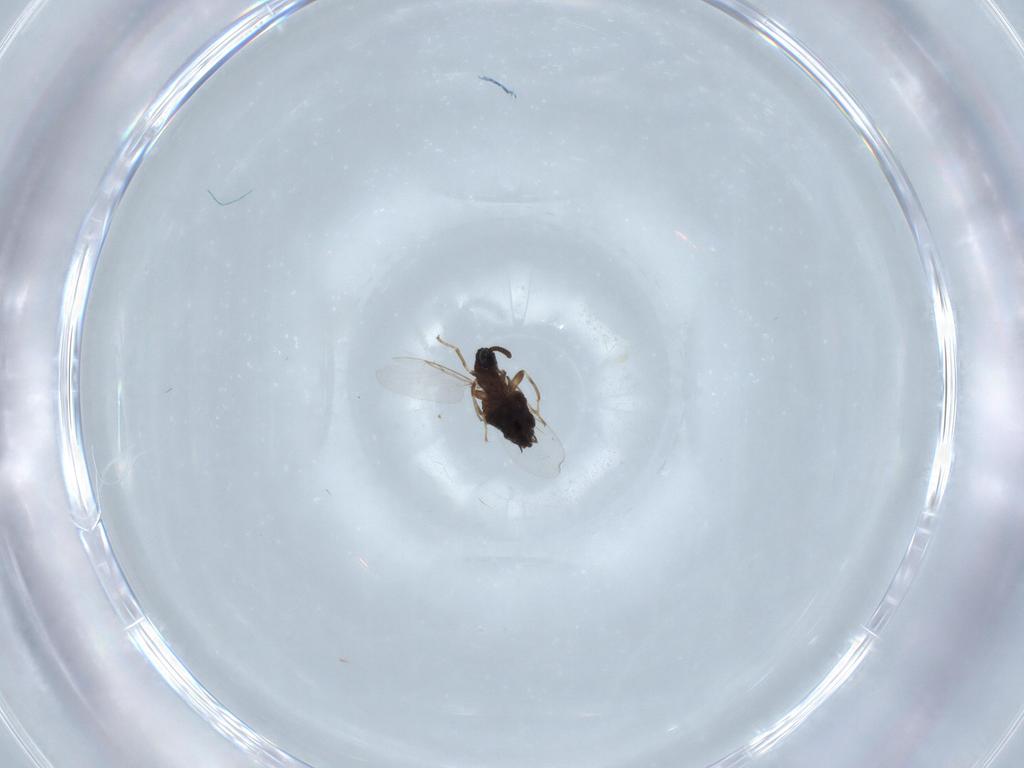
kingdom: Animalia
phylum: Arthropoda
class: Insecta
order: Diptera
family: Scatopsidae
